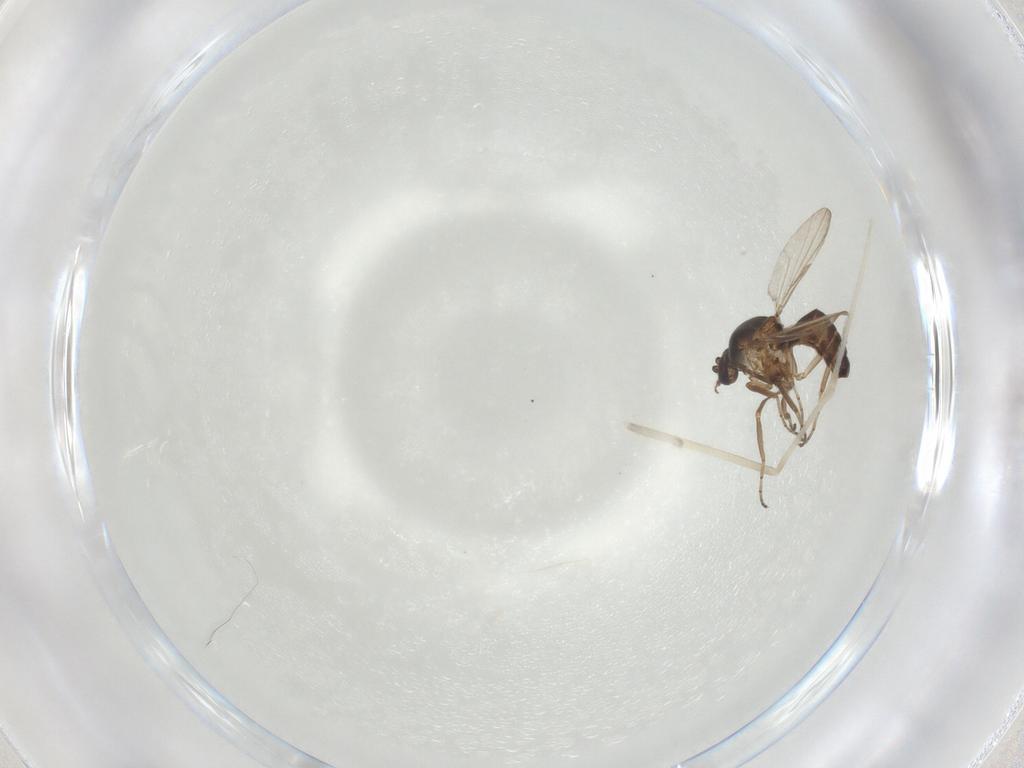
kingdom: Animalia
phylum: Arthropoda
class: Insecta
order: Diptera
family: Ceratopogonidae
